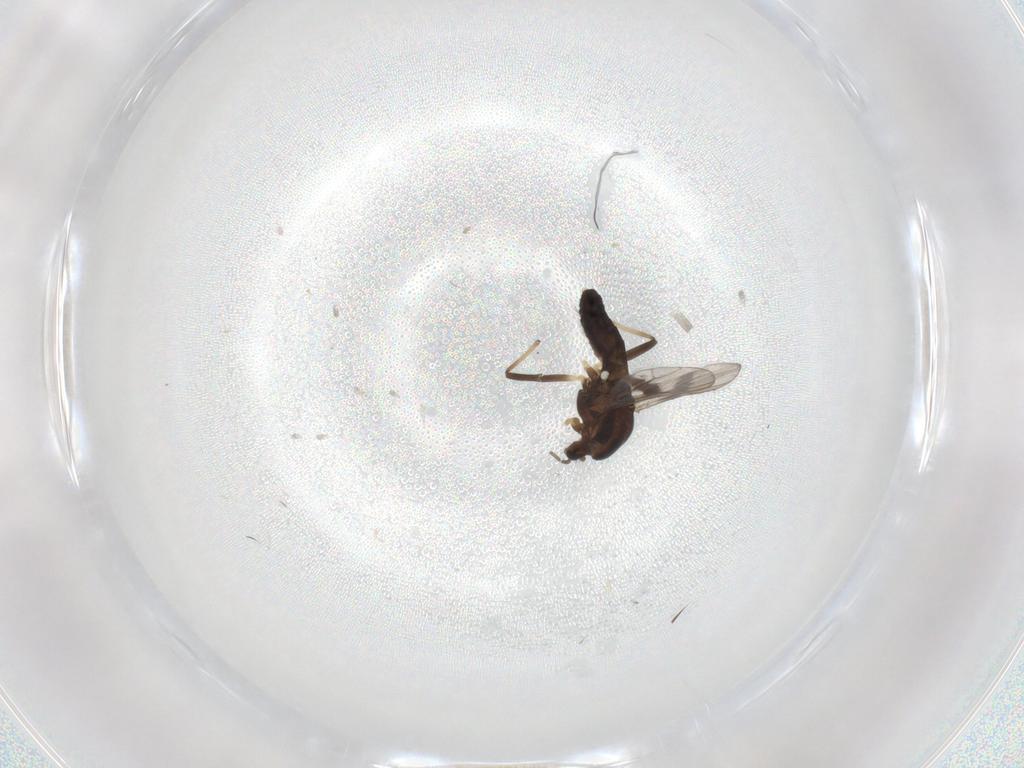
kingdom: Animalia
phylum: Arthropoda
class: Insecta
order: Diptera
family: Chironomidae
